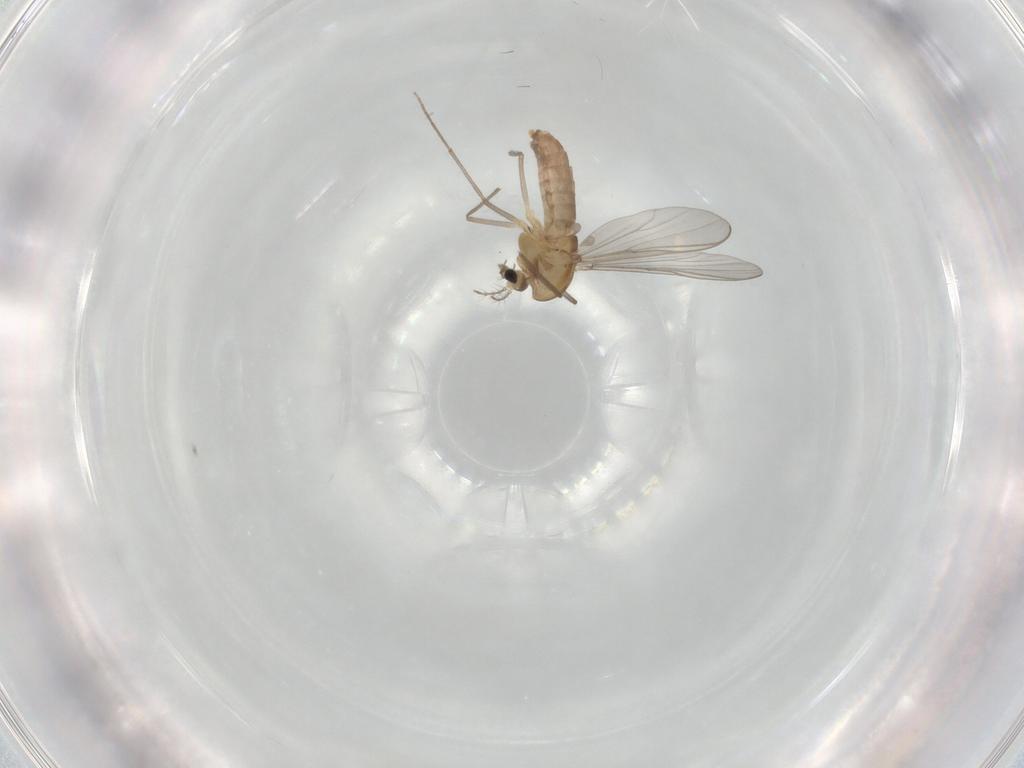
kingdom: Animalia
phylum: Arthropoda
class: Insecta
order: Diptera
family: Chironomidae
